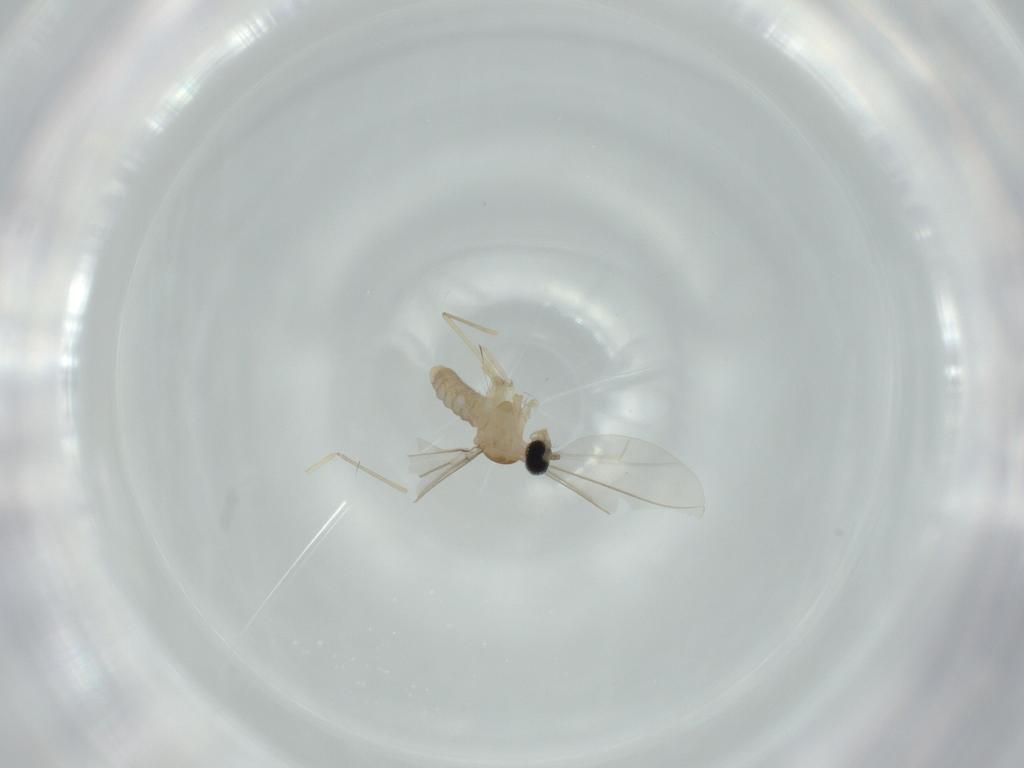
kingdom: Animalia
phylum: Arthropoda
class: Insecta
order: Diptera
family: Cecidomyiidae
